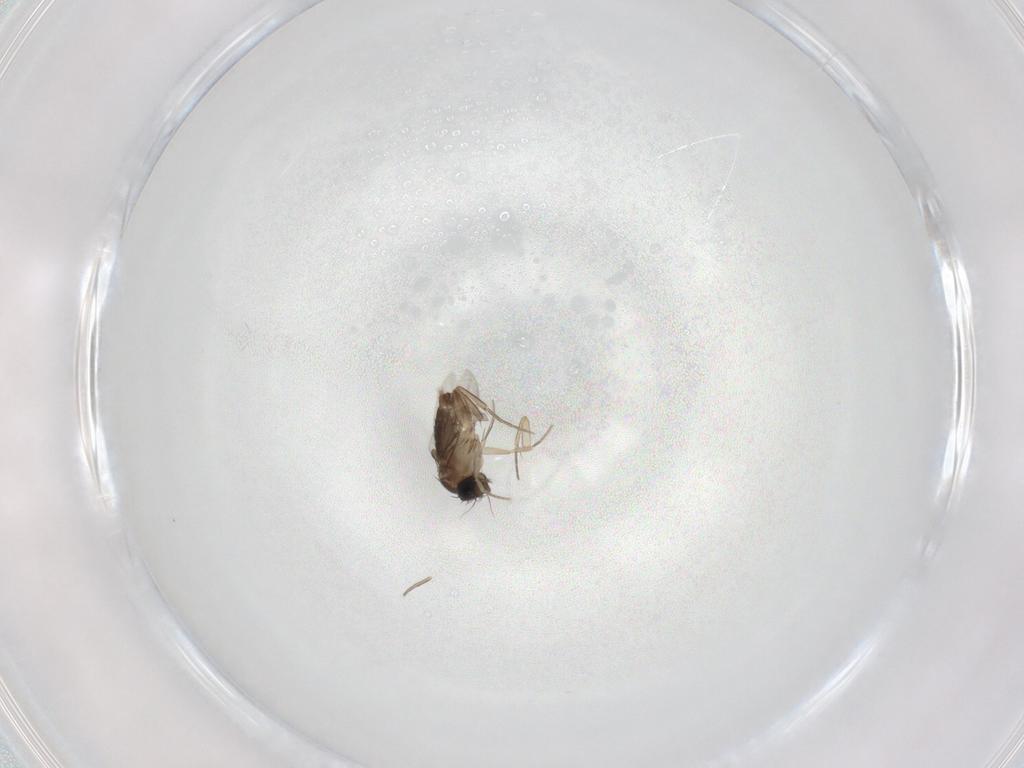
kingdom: Animalia
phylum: Arthropoda
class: Insecta
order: Diptera
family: Phoridae
